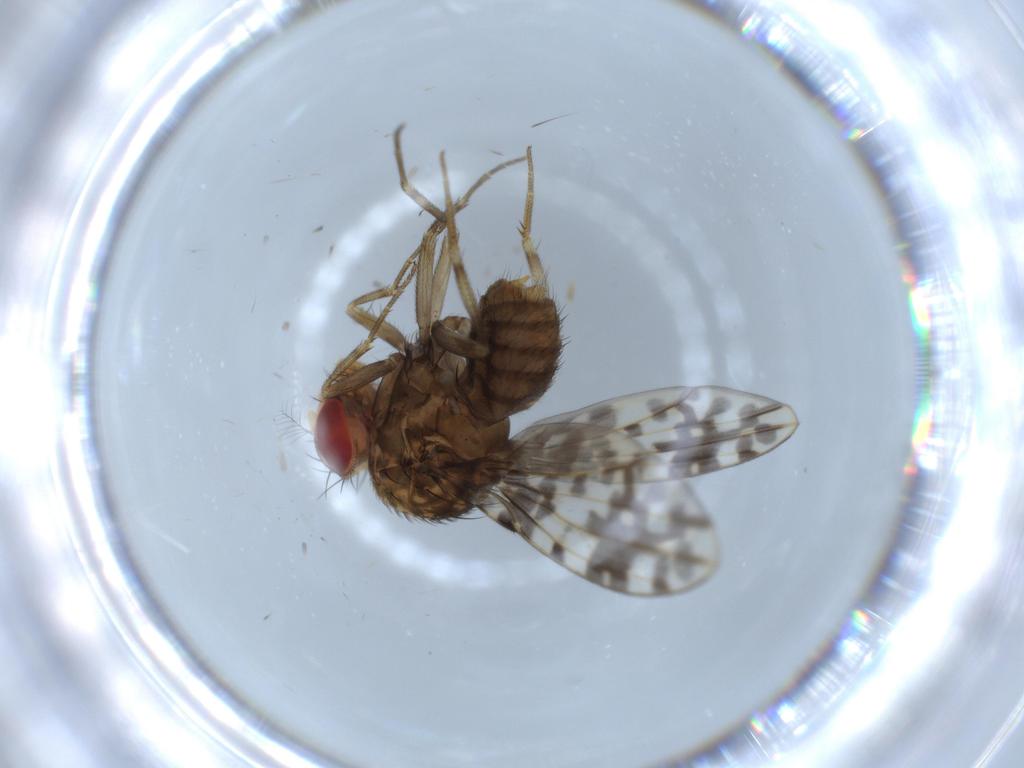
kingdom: Animalia
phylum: Arthropoda
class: Insecta
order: Diptera
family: Drosophilidae
